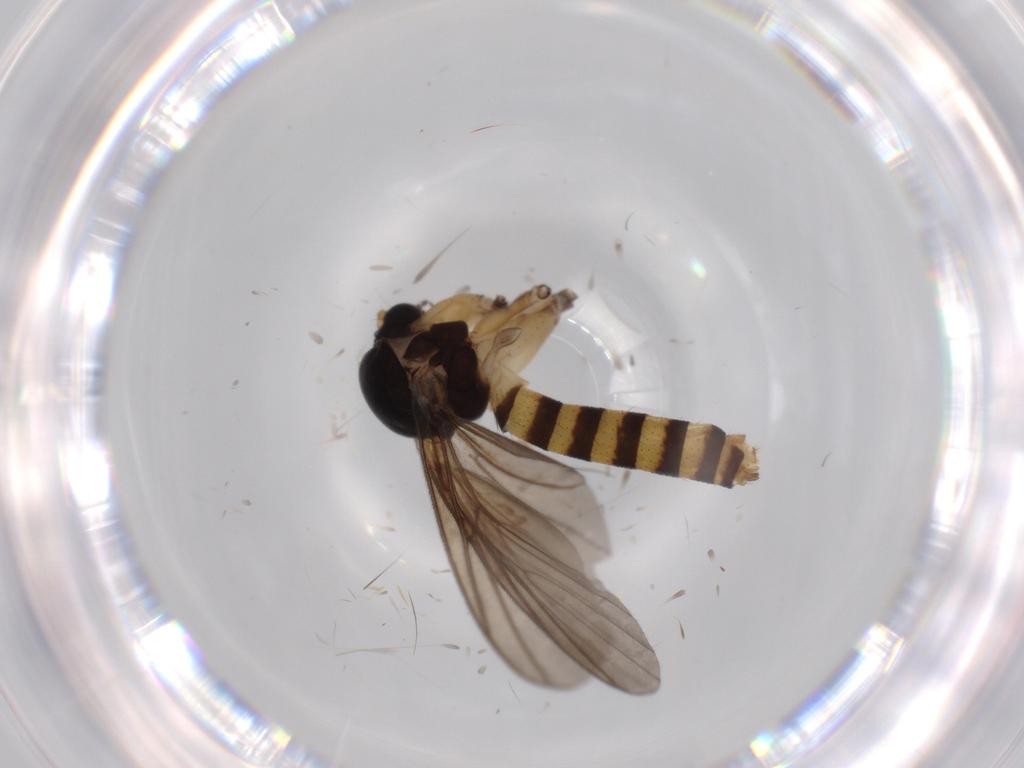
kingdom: Animalia
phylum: Arthropoda
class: Insecta
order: Diptera
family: Mycetophilidae
